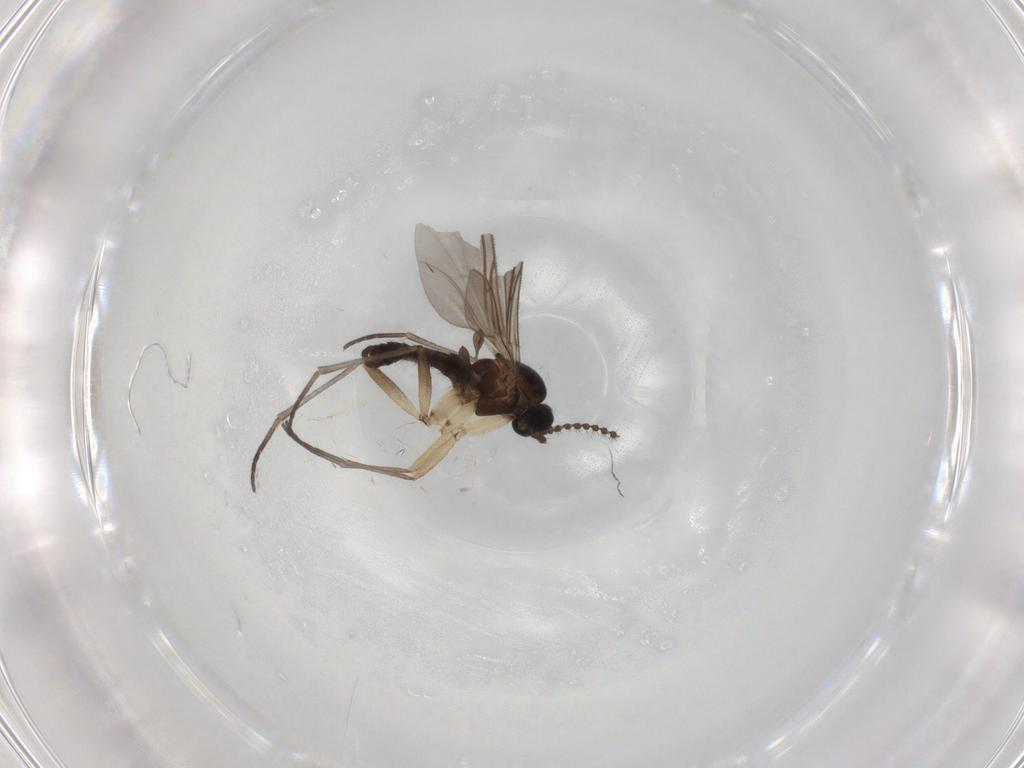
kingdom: Animalia
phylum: Arthropoda
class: Insecta
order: Diptera
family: Sciaridae
